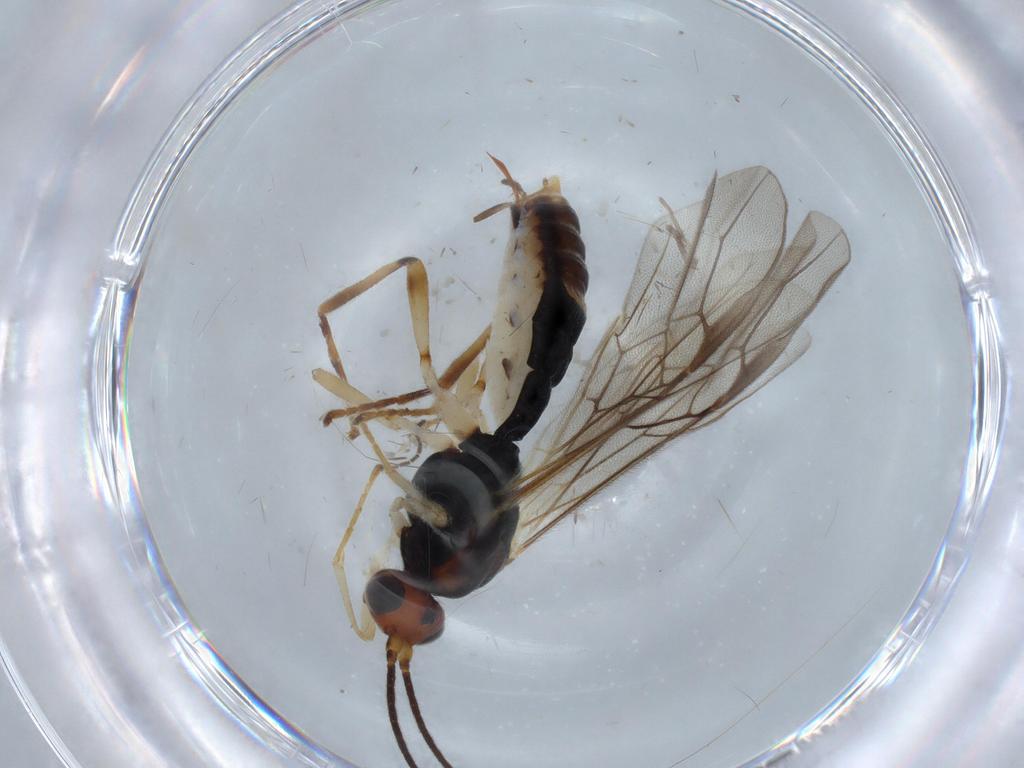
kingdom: Animalia
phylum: Arthropoda
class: Insecta
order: Hymenoptera
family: Braconidae
